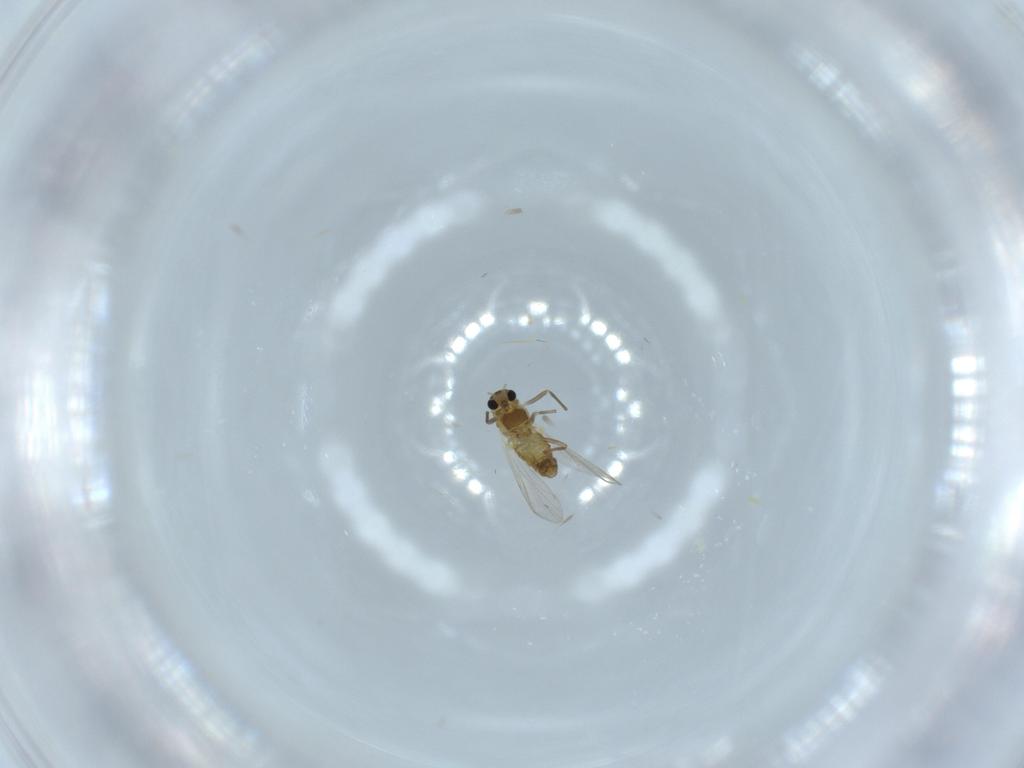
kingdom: Animalia
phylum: Arthropoda
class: Insecta
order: Diptera
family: Chironomidae
